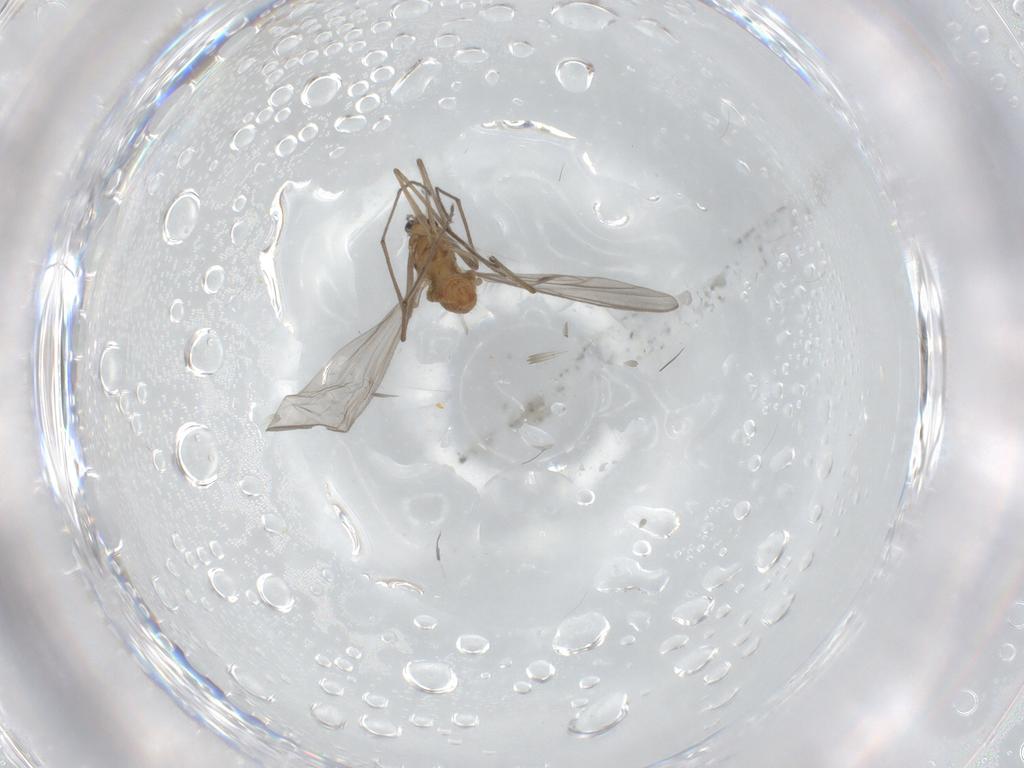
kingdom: Animalia
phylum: Arthropoda
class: Insecta
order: Diptera
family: Chironomidae
